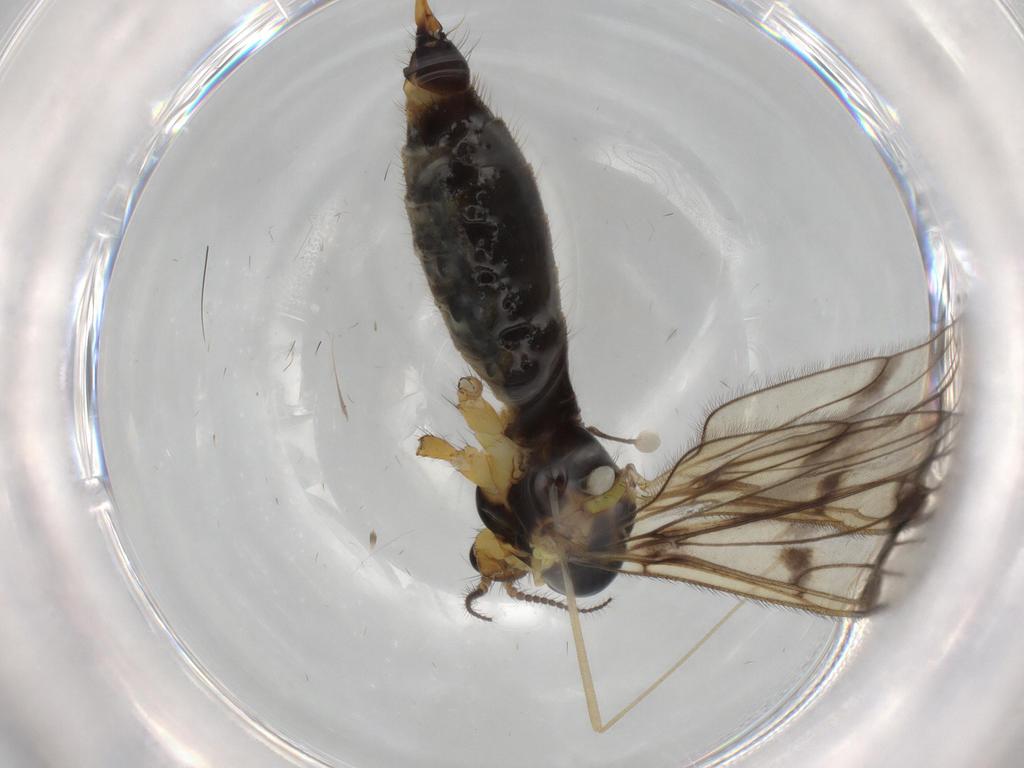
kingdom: Animalia
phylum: Arthropoda
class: Insecta
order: Diptera
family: Limoniidae
